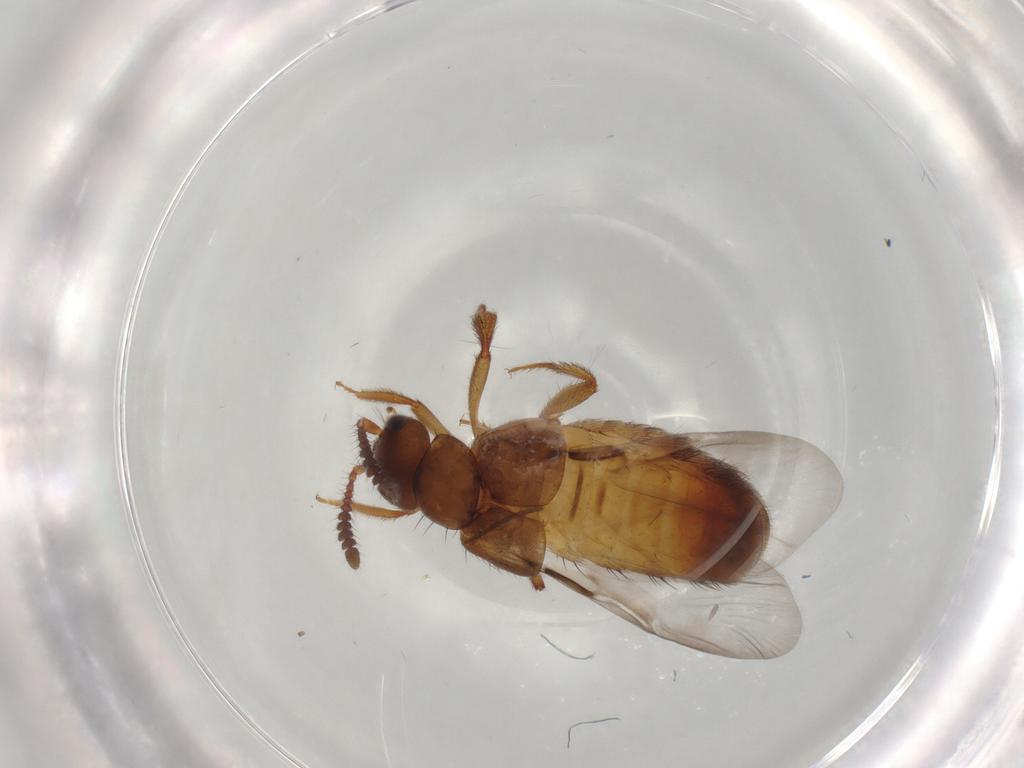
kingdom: Animalia
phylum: Arthropoda
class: Insecta
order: Coleoptera
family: Staphylinidae
